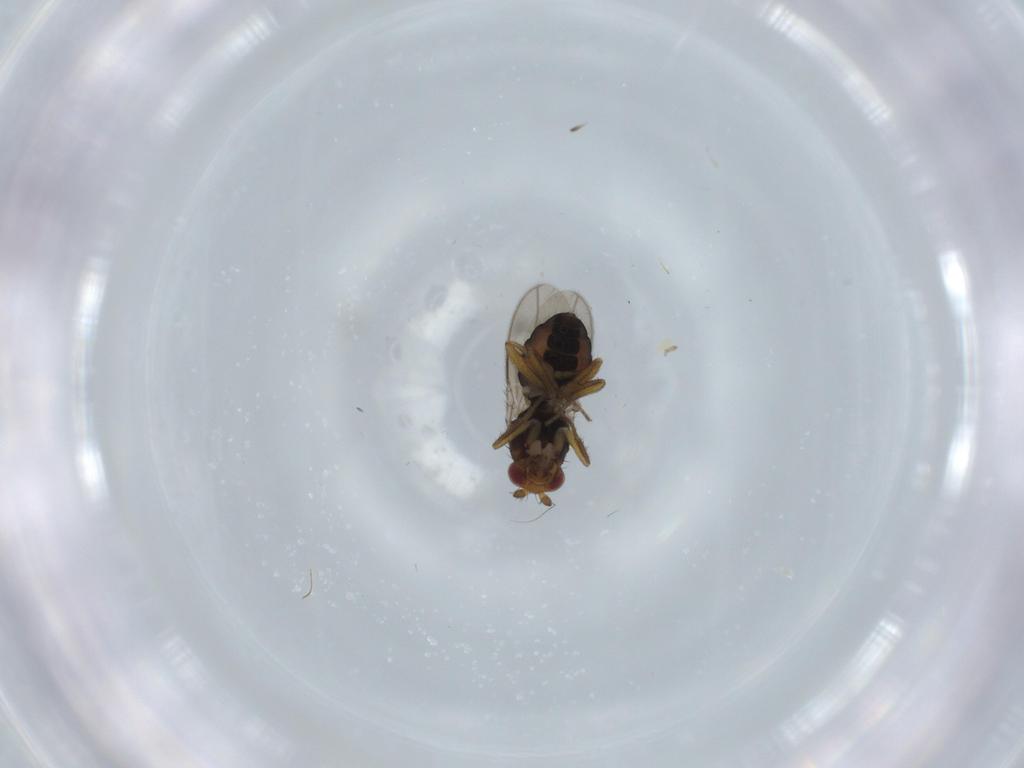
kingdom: Animalia
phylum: Arthropoda
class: Insecta
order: Diptera
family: Sphaeroceridae
